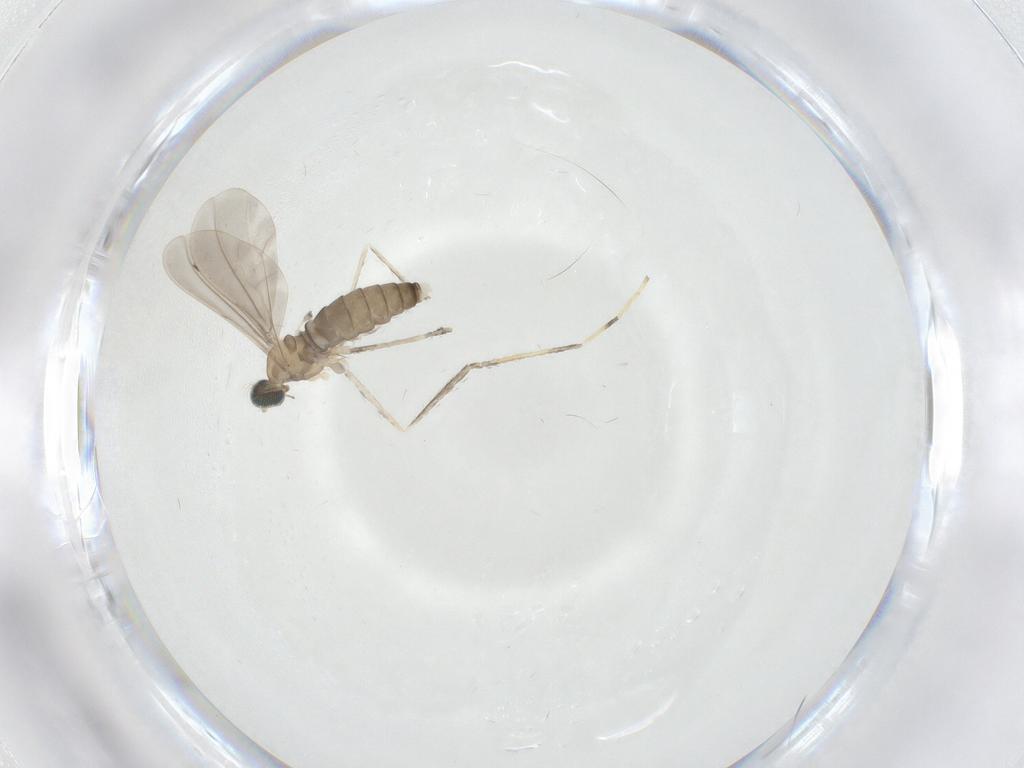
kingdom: Animalia
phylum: Arthropoda
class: Insecta
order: Diptera
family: Cecidomyiidae
